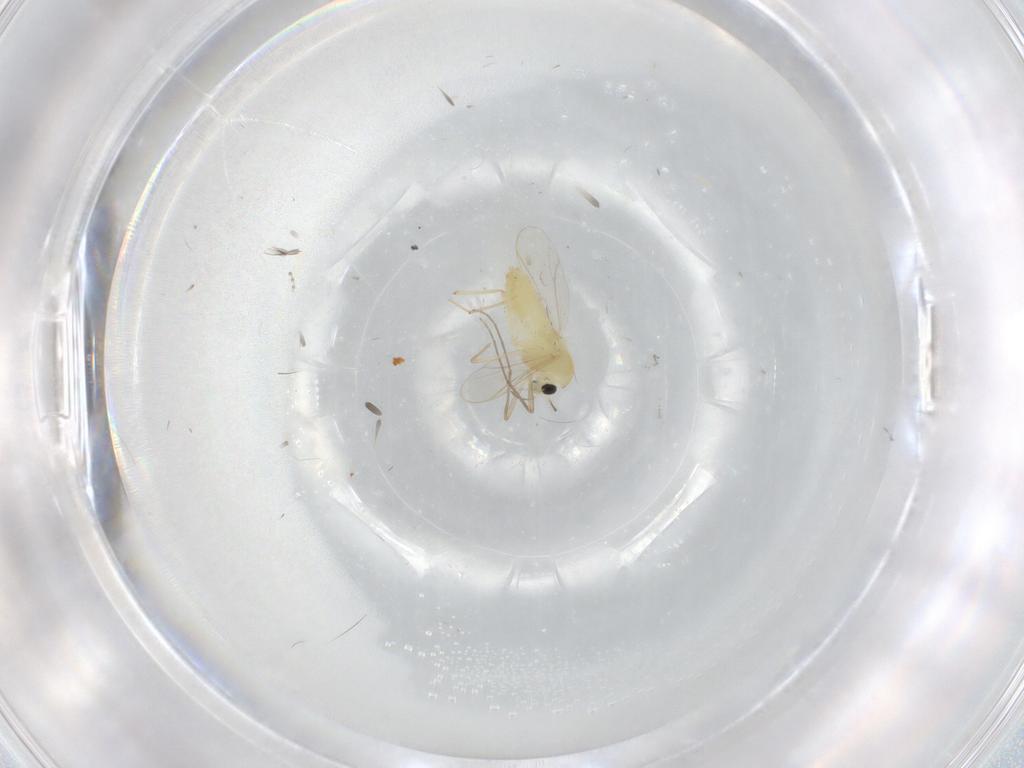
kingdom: Animalia
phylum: Arthropoda
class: Insecta
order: Diptera
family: Chironomidae
